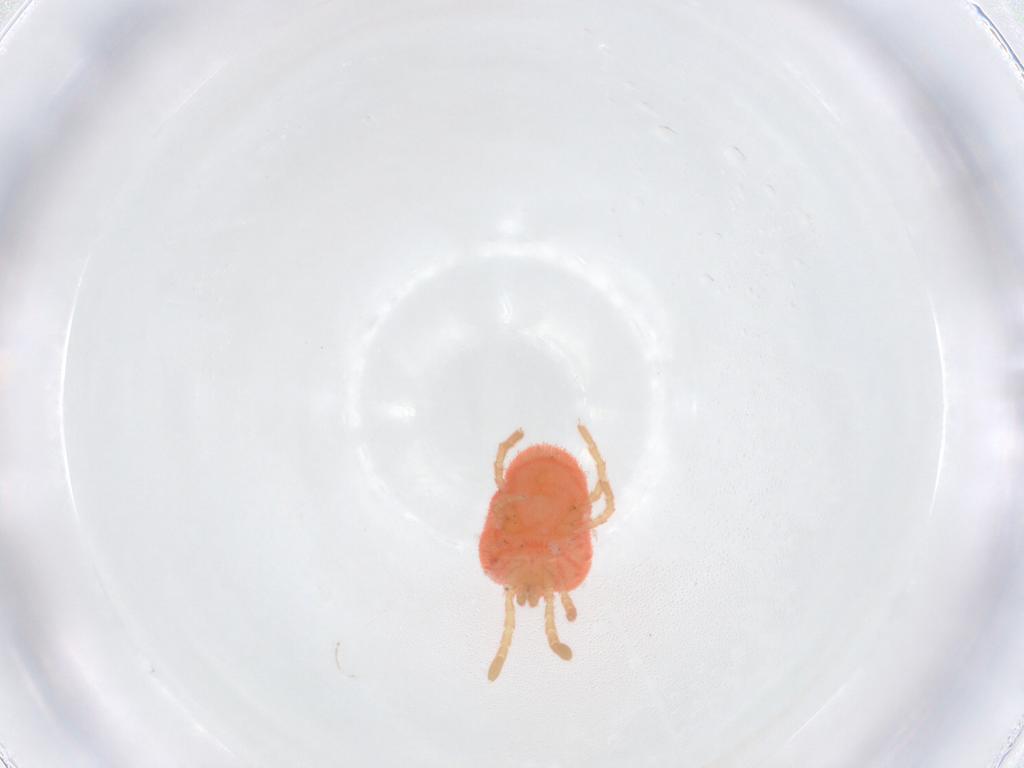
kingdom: Animalia
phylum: Arthropoda
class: Arachnida
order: Trombidiformes
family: Trombidiidae
